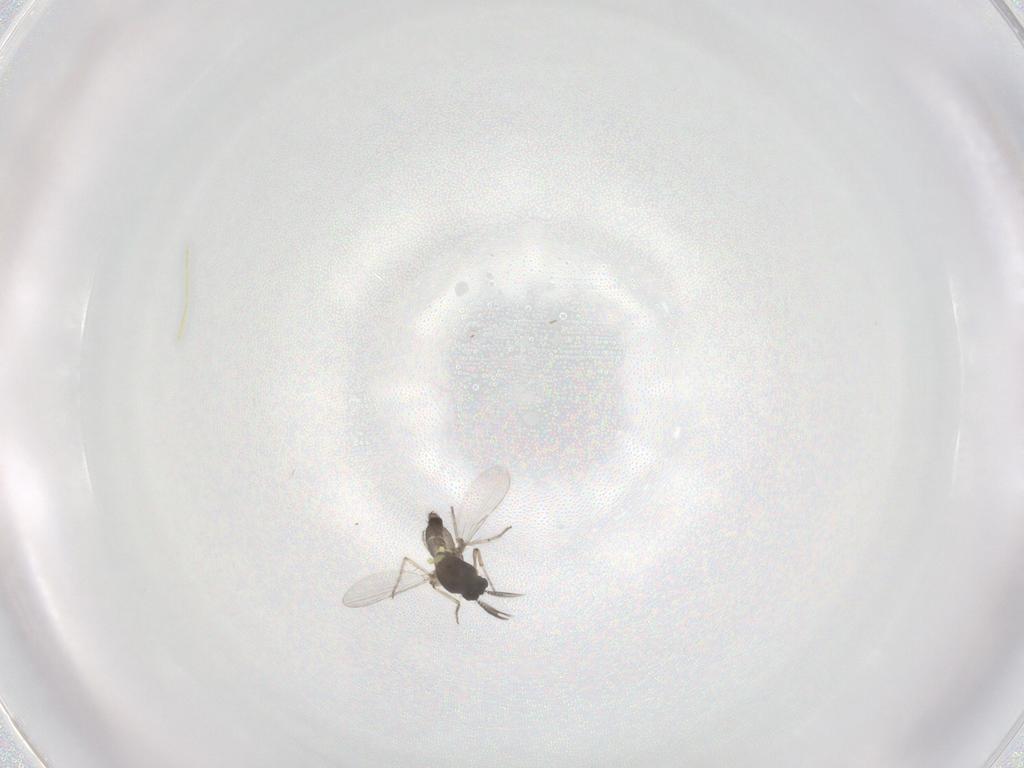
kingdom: Animalia
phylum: Arthropoda
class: Insecta
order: Diptera
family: Ceratopogonidae
